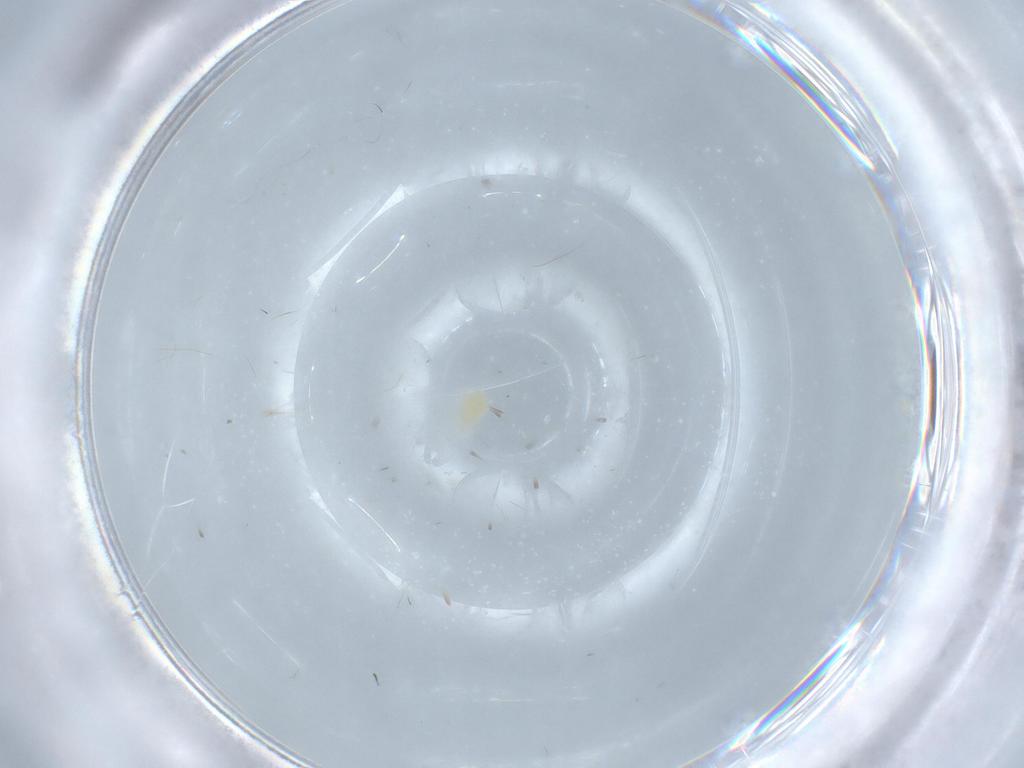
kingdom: Animalia
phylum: Arthropoda
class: Arachnida
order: Araneae
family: Pisauridae
